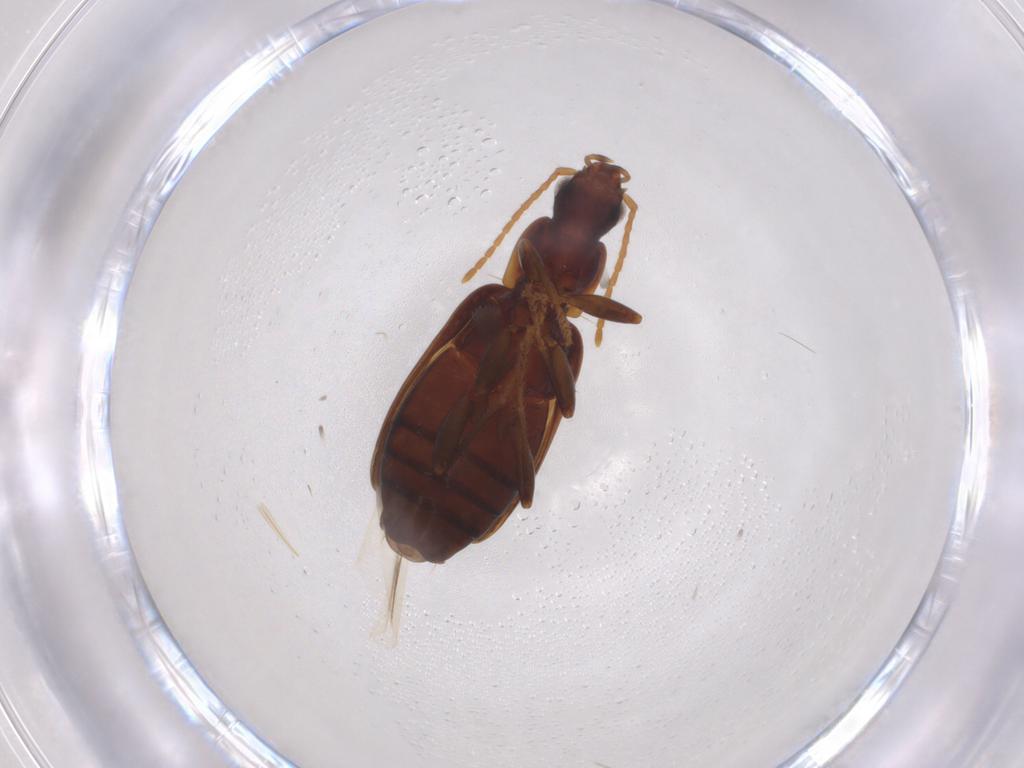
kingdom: Animalia
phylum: Arthropoda
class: Insecta
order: Coleoptera
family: Carabidae
